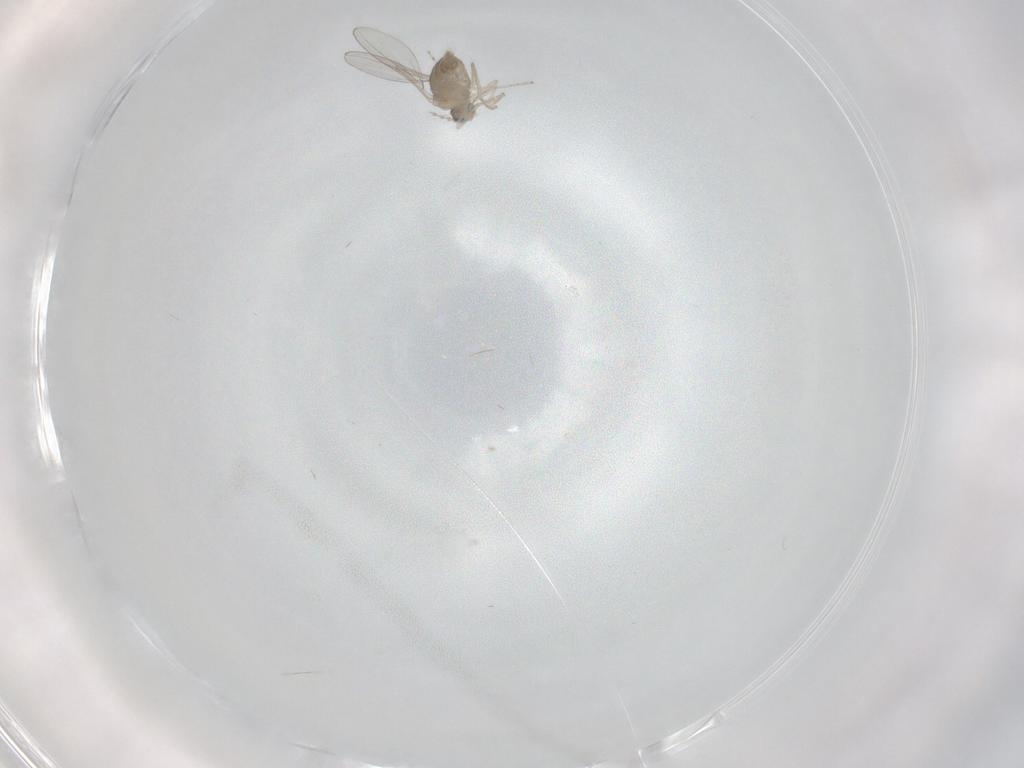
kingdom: Animalia
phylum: Arthropoda
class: Insecta
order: Diptera
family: Cecidomyiidae
